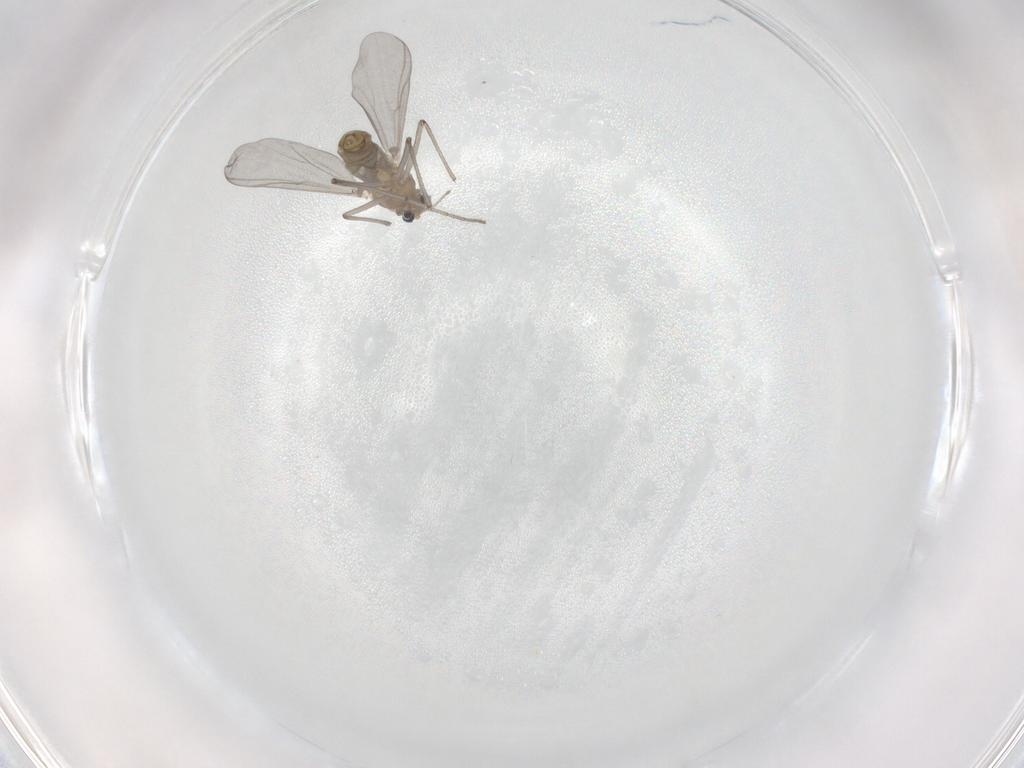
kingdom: Animalia
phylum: Arthropoda
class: Insecta
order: Diptera
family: Chironomidae
